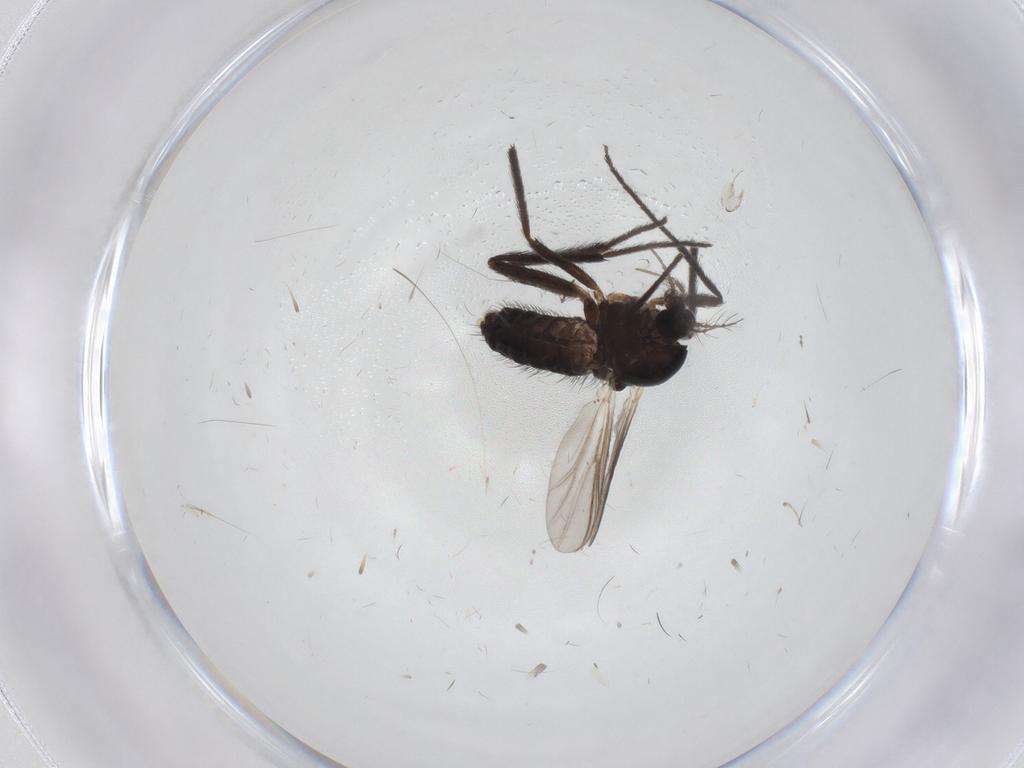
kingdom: Animalia
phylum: Arthropoda
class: Insecta
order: Diptera
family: Chironomidae
